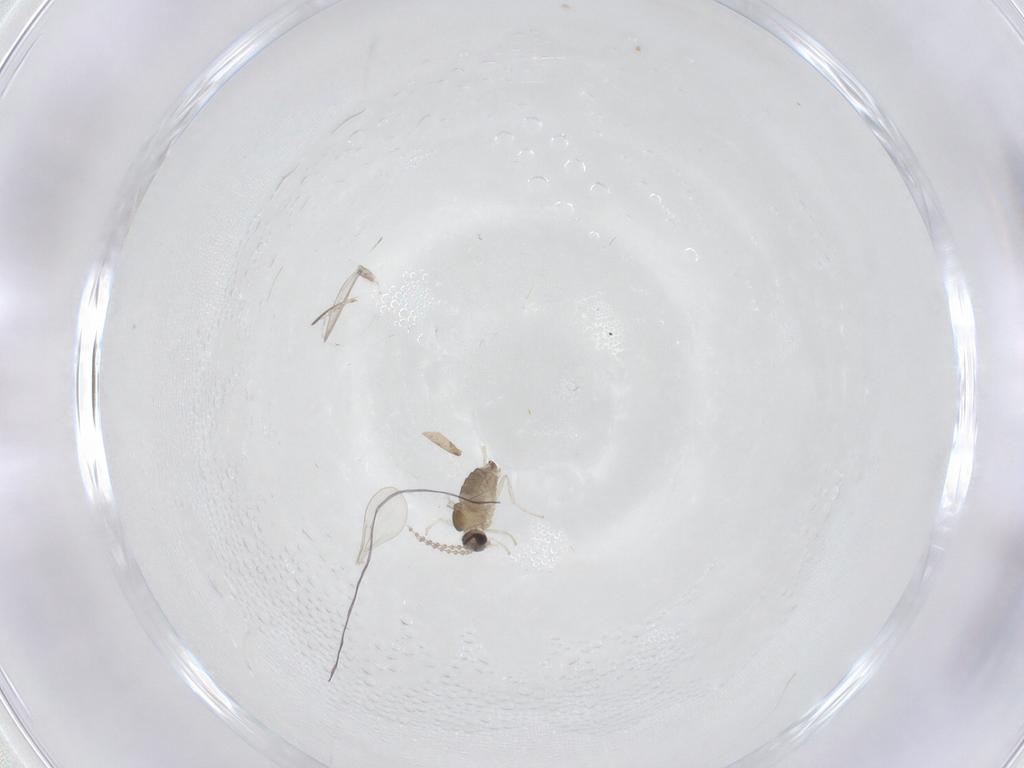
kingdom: Animalia
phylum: Arthropoda
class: Insecta
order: Diptera
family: Cecidomyiidae
